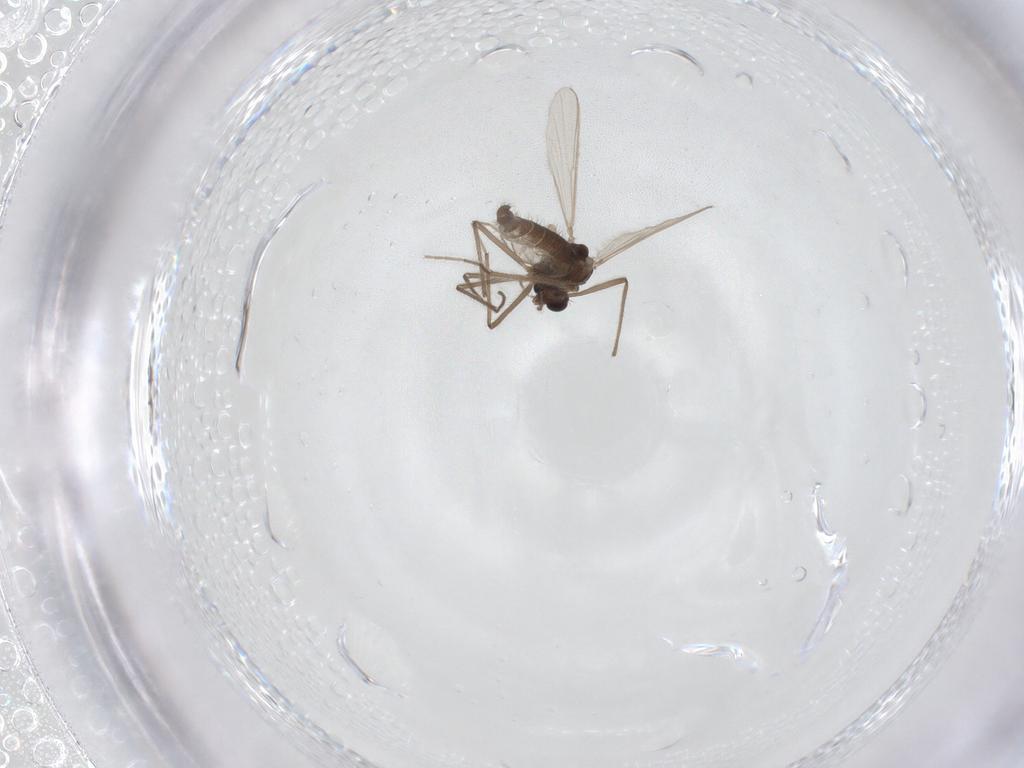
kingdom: Animalia
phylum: Arthropoda
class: Insecta
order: Diptera
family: Chironomidae
